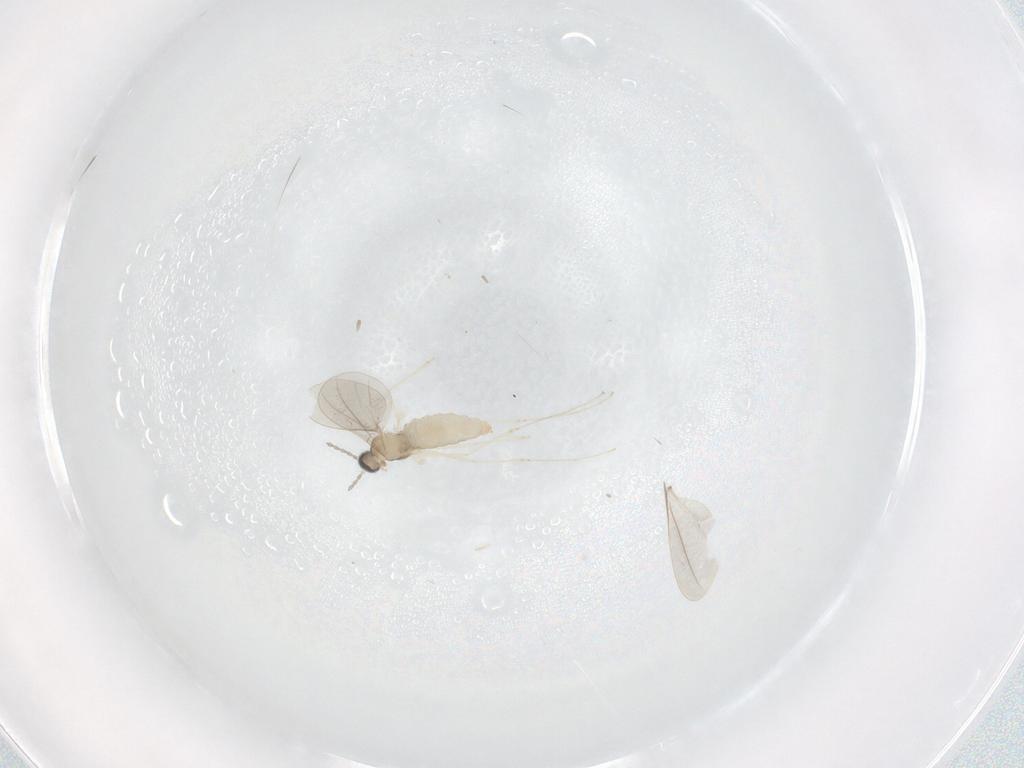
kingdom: Animalia
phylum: Arthropoda
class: Insecta
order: Diptera
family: Cecidomyiidae
